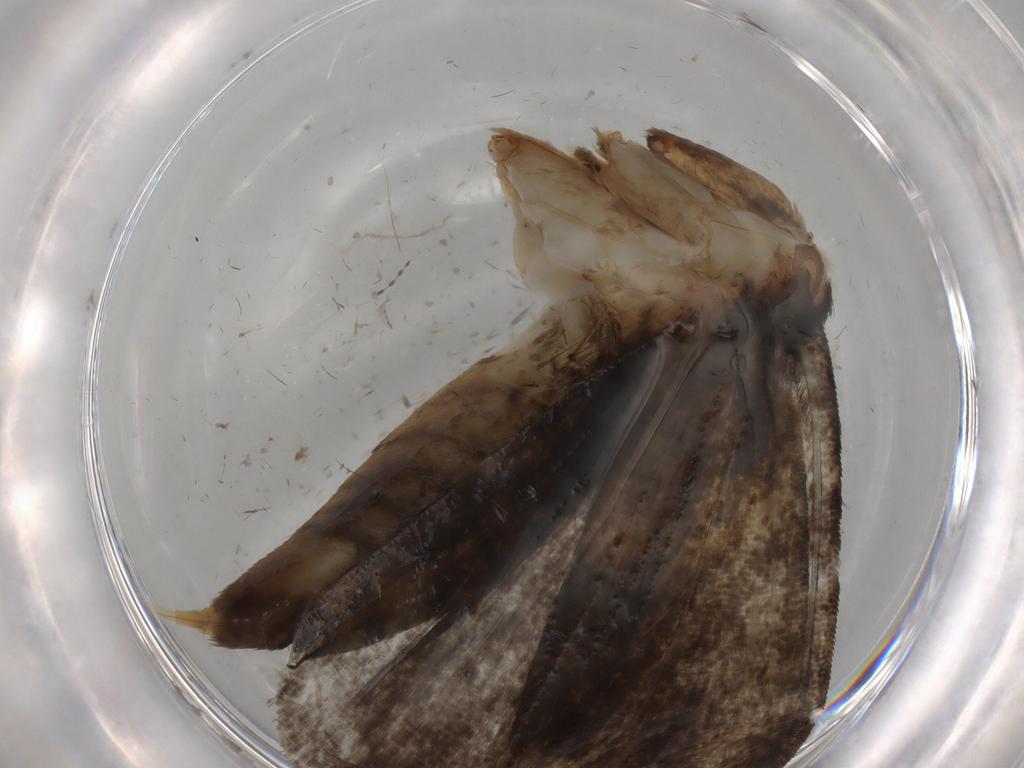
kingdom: Animalia
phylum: Arthropoda
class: Insecta
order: Lepidoptera
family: Tineidae
